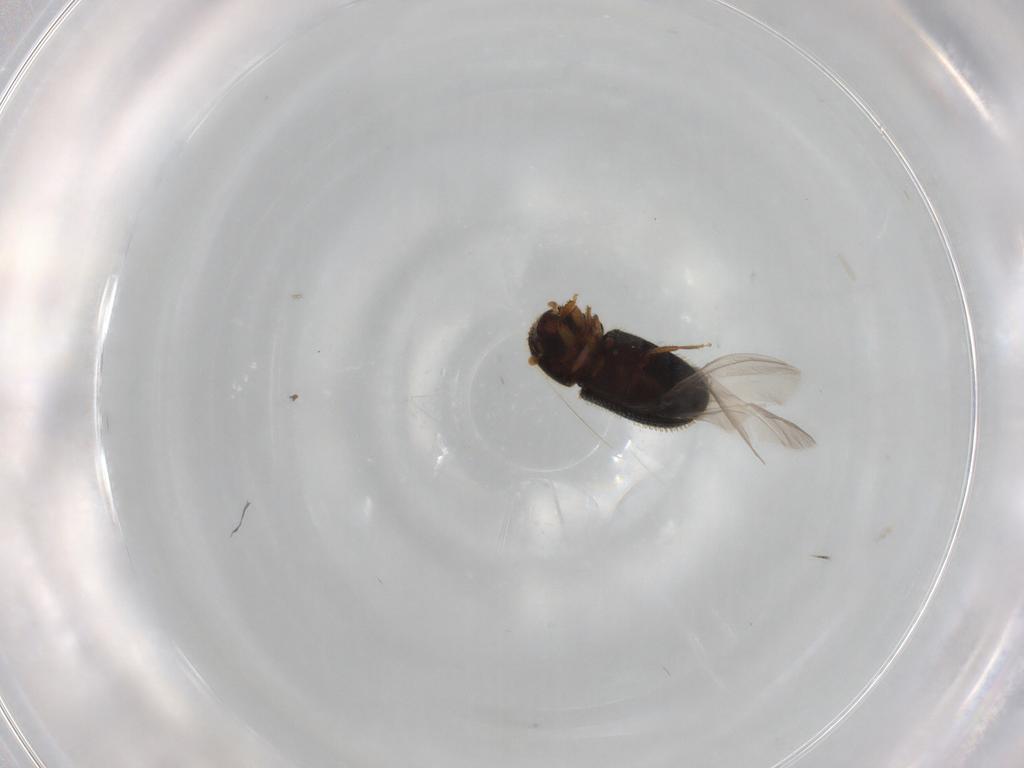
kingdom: Animalia
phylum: Arthropoda
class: Insecta
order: Coleoptera
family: Curculionidae
